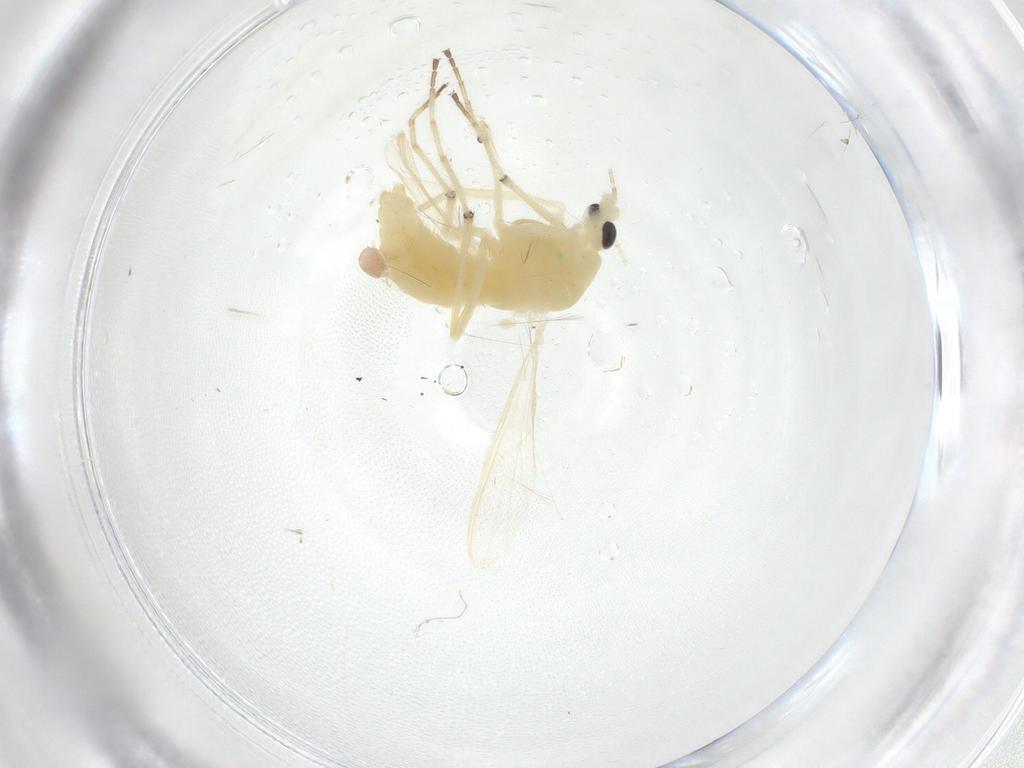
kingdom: Animalia
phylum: Arthropoda
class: Insecta
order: Diptera
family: Chironomidae
